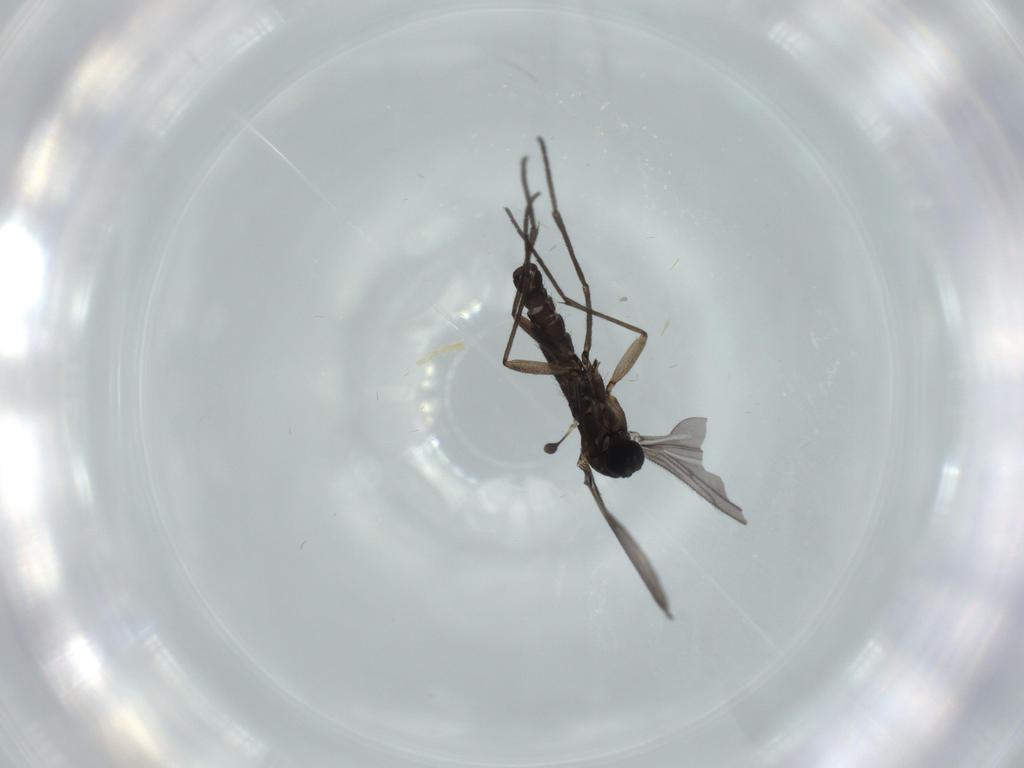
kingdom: Animalia
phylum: Arthropoda
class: Insecta
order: Diptera
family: Sciaridae
